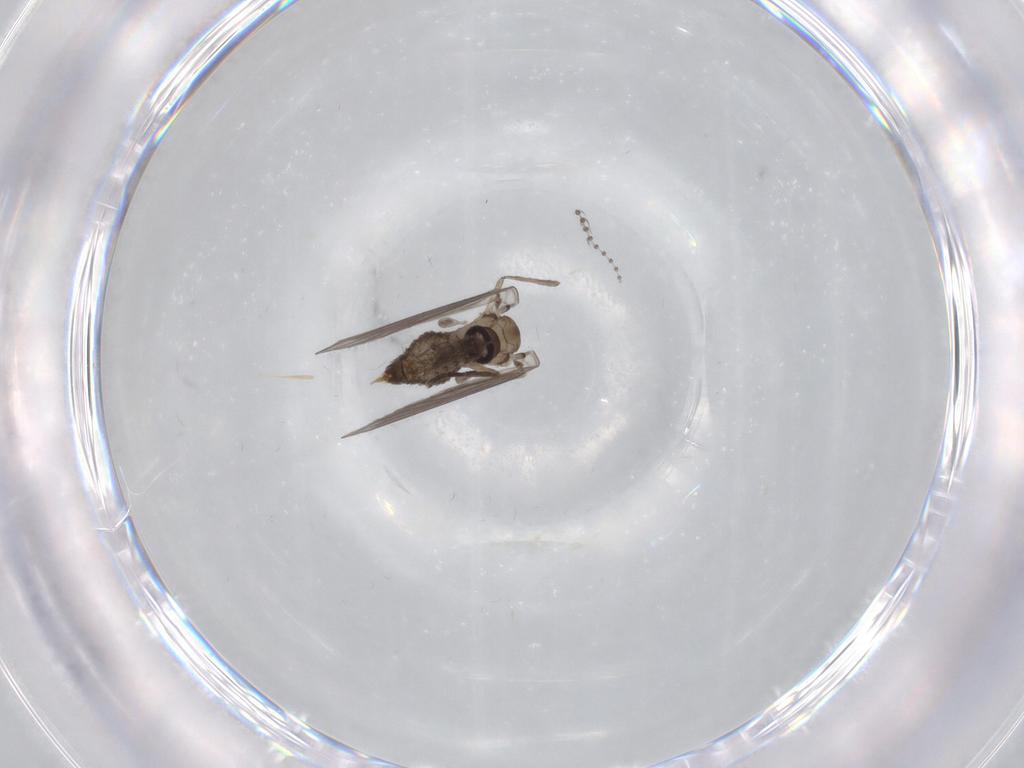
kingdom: Animalia
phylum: Arthropoda
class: Insecta
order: Diptera
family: Psychodidae
